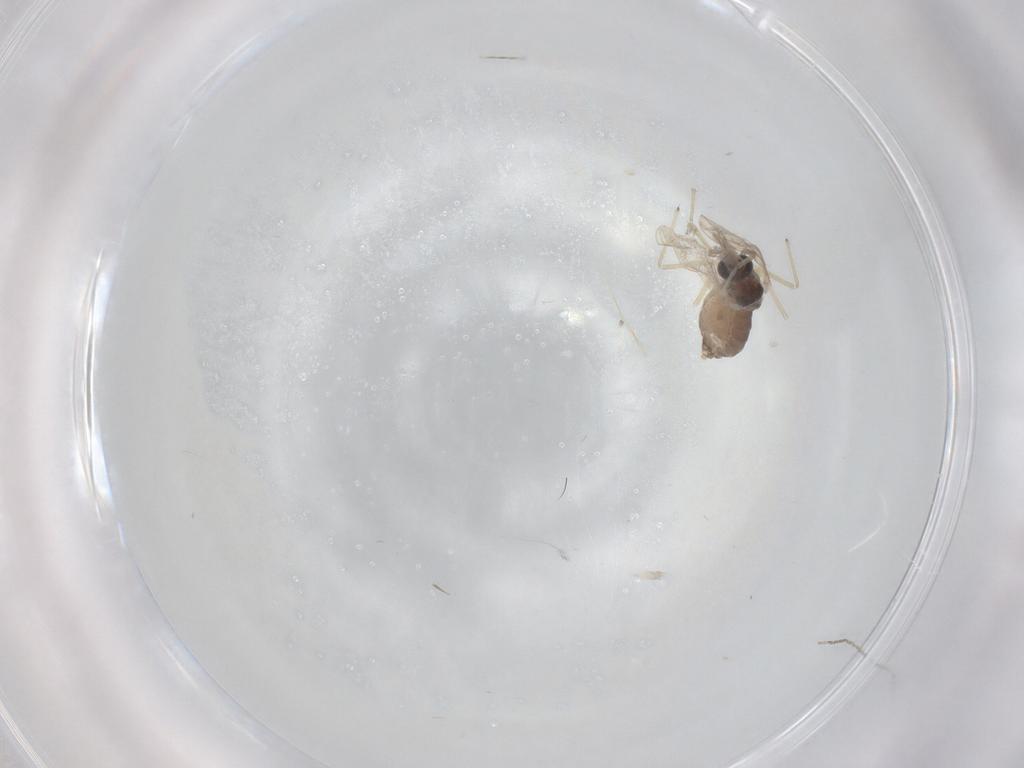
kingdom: Animalia
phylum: Arthropoda
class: Insecta
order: Diptera
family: Chironomidae
